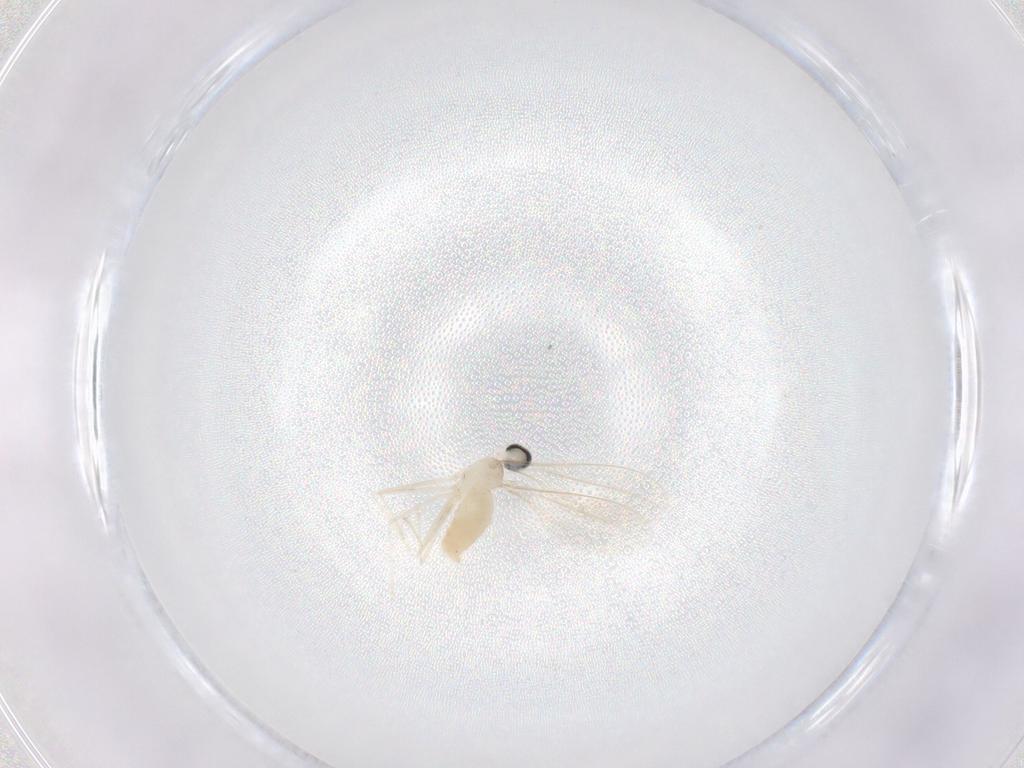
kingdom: Animalia
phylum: Arthropoda
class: Insecta
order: Diptera
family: Cecidomyiidae
